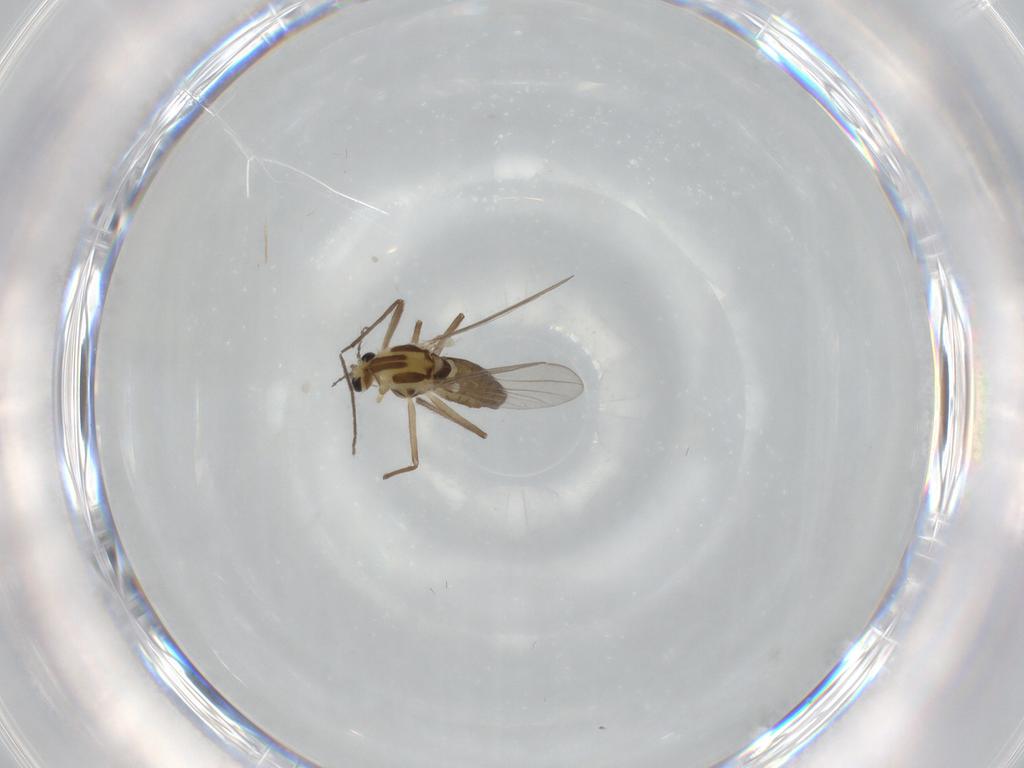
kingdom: Animalia
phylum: Arthropoda
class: Insecta
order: Diptera
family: Chironomidae
